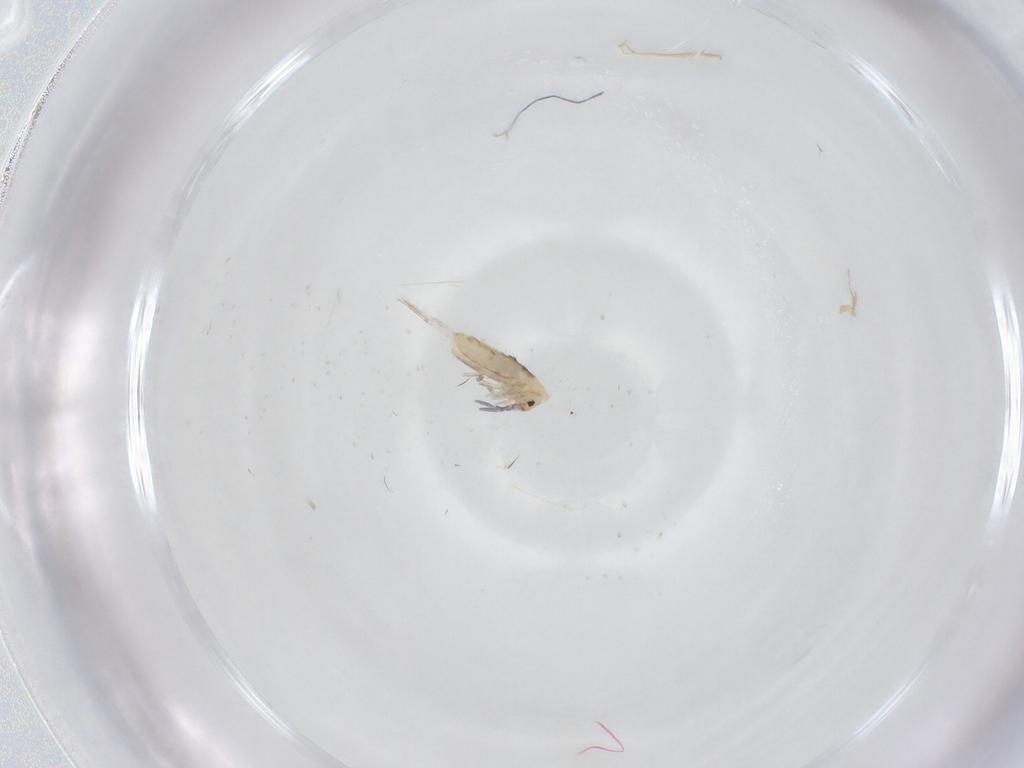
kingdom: Animalia
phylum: Arthropoda
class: Collembola
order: Entomobryomorpha
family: Entomobryidae
